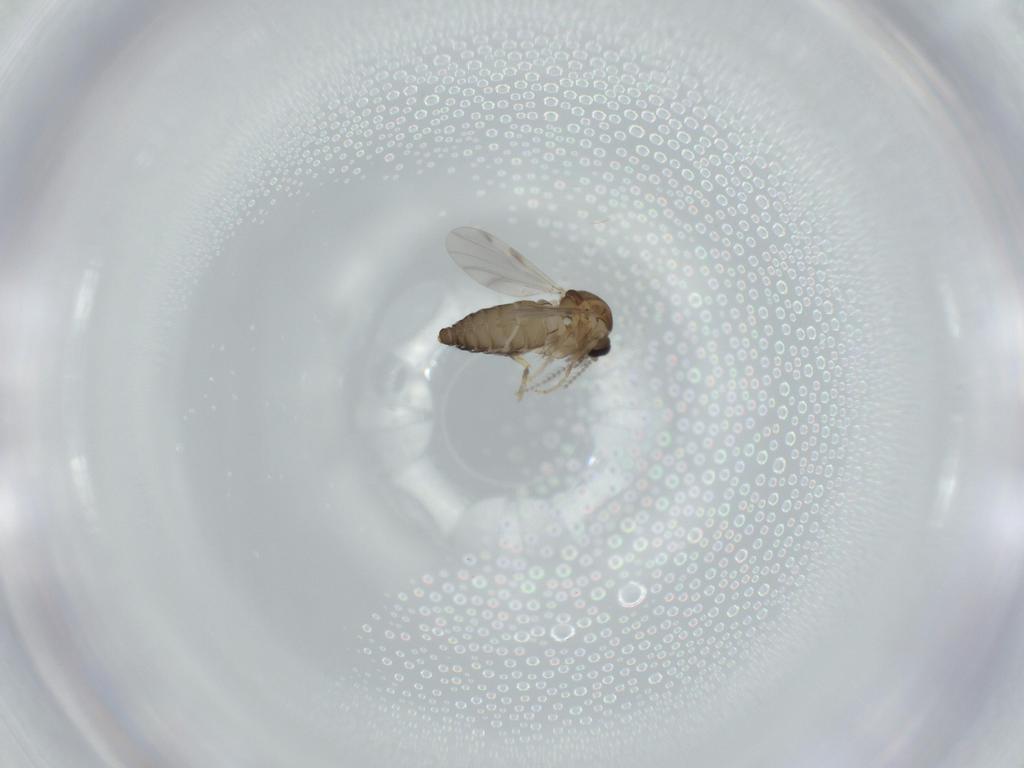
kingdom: Animalia
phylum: Arthropoda
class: Insecta
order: Diptera
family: Ceratopogonidae
